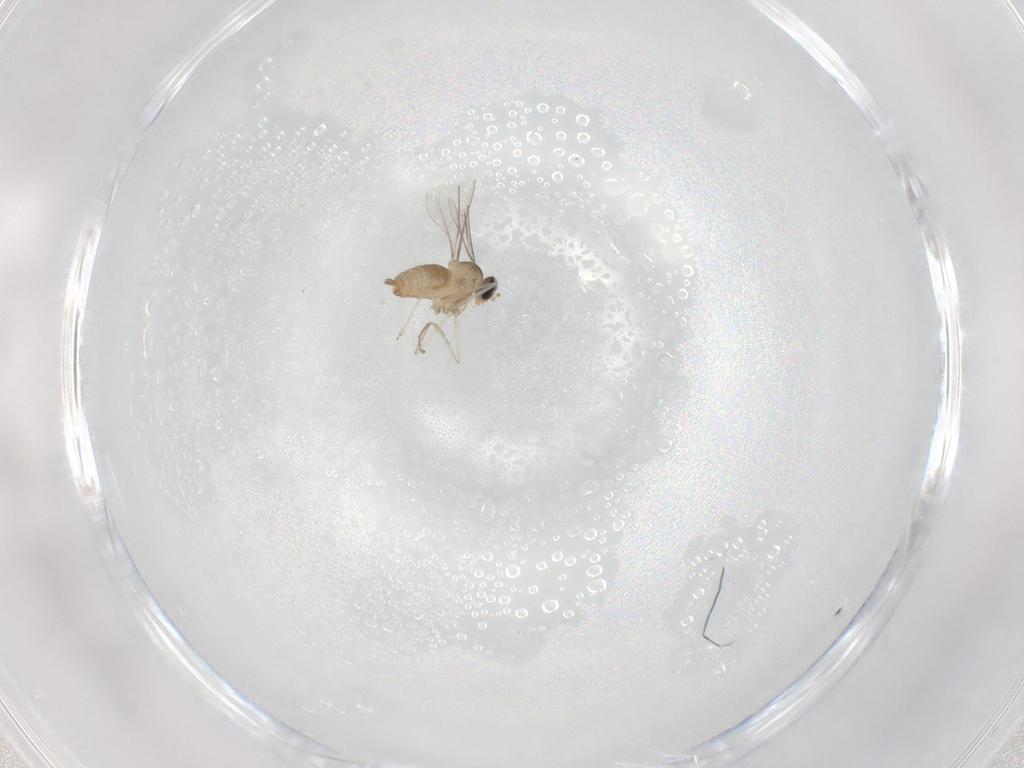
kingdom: Animalia
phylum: Arthropoda
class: Insecta
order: Diptera
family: Cecidomyiidae
